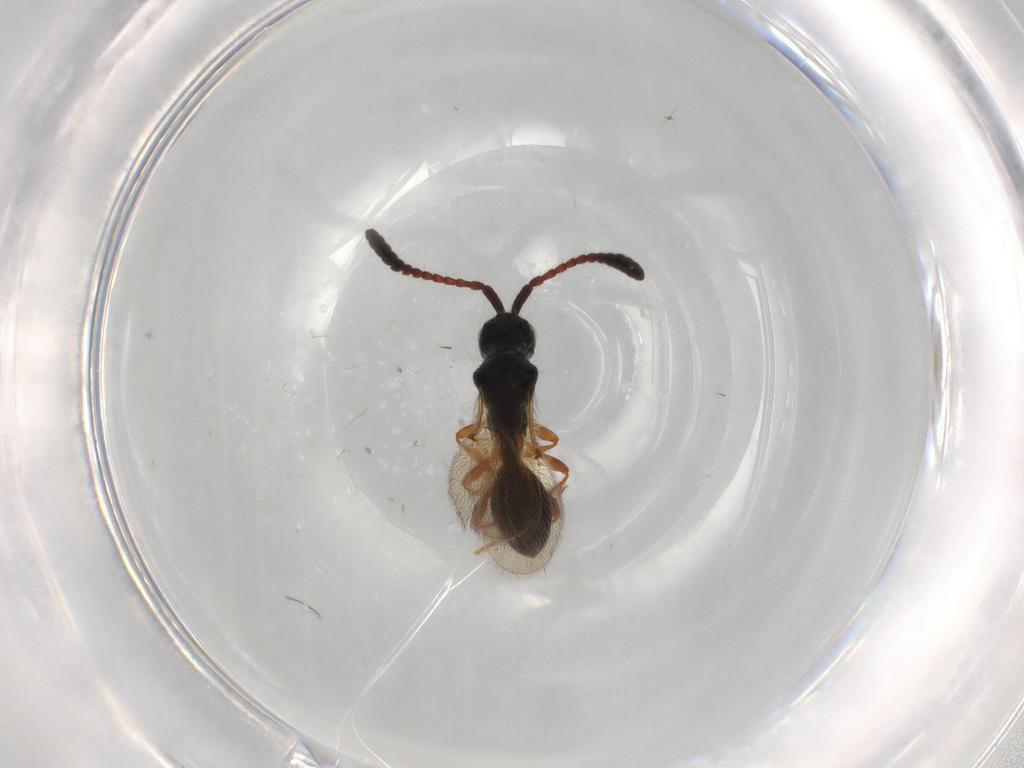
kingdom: Animalia
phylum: Arthropoda
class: Insecta
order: Hymenoptera
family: Diapriidae
